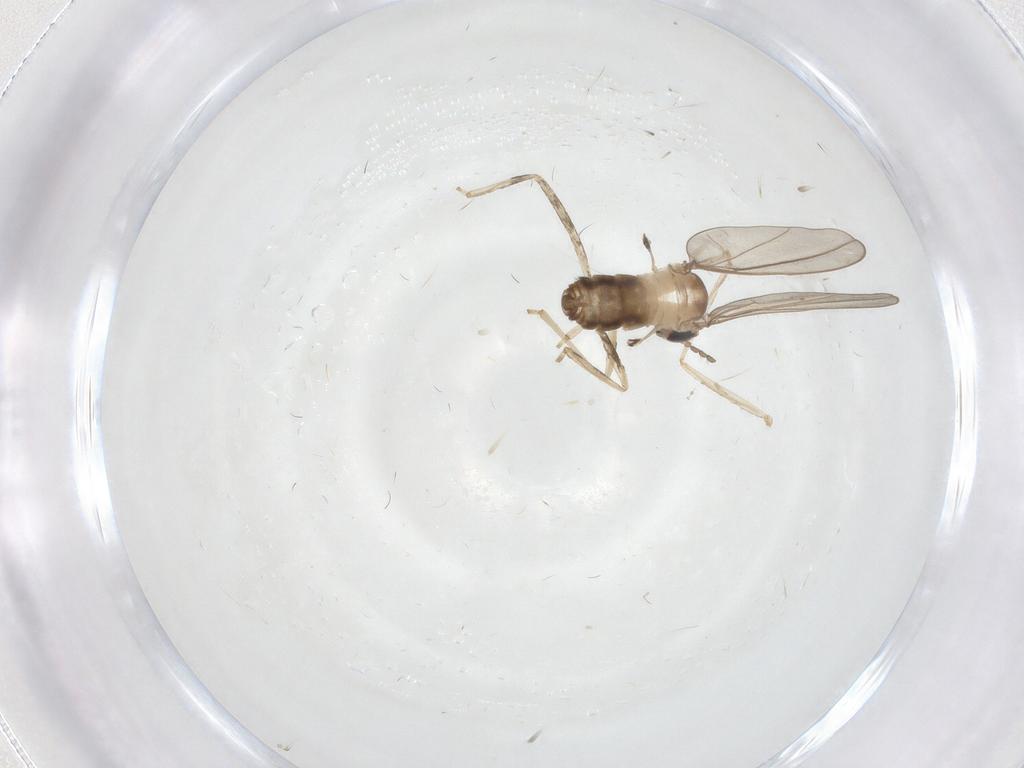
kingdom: Animalia
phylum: Arthropoda
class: Insecta
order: Diptera
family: Cecidomyiidae
